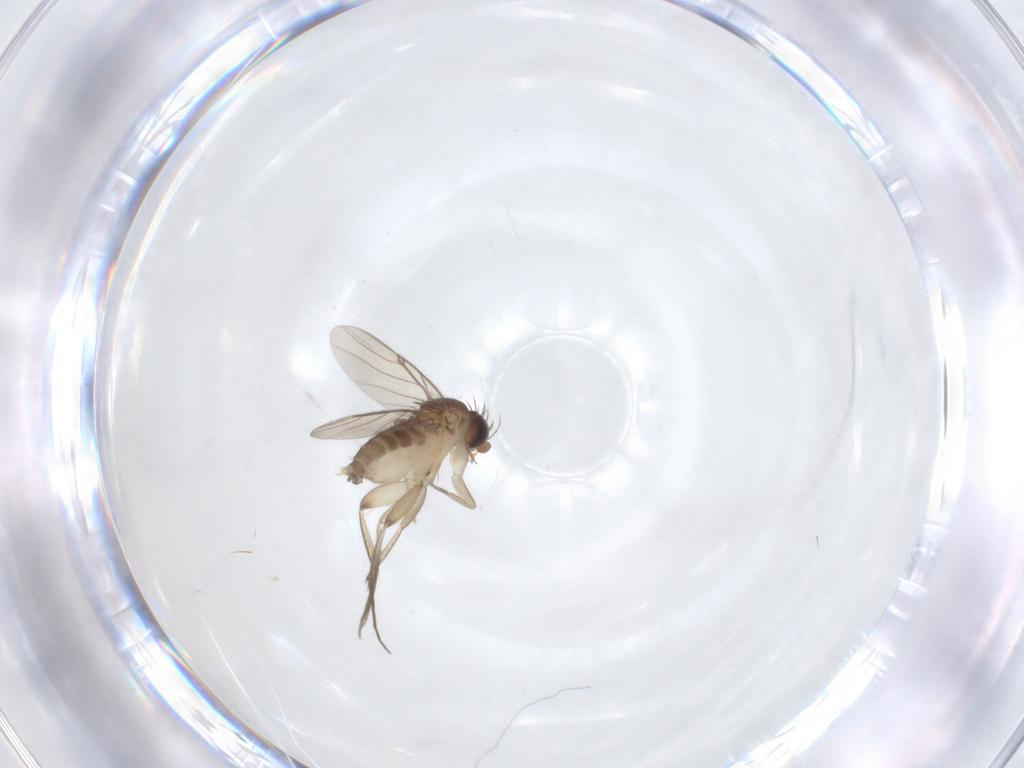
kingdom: Animalia
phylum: Arthropoda
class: Insecta
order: Diptera
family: Phoridae
